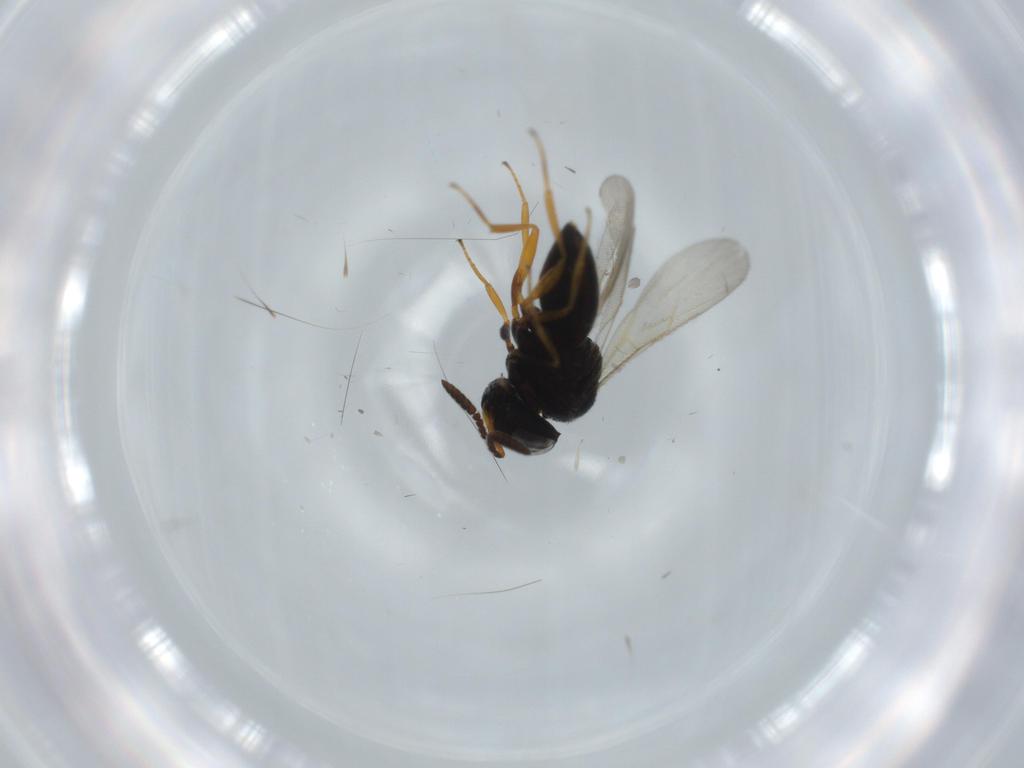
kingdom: Animalia
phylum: Arthropoda
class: Insecta
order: Hymenoptera
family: Scelionidae
